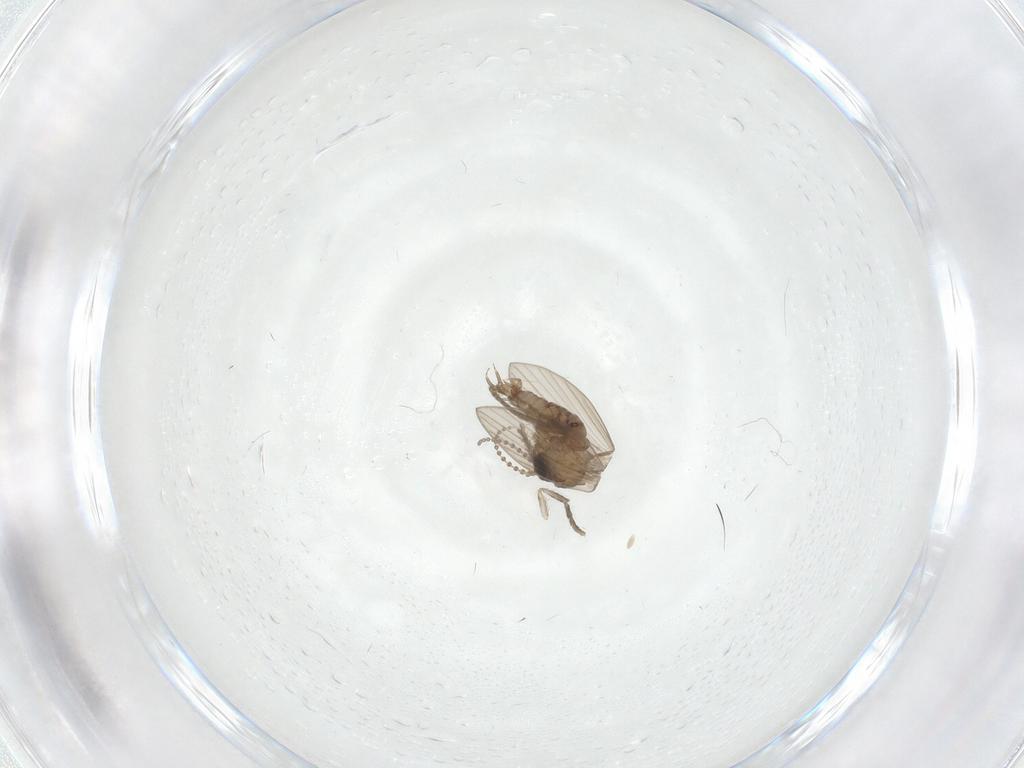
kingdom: Animalia
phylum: Arthropoda
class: Insecta
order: Diptera
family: Psychodidae
